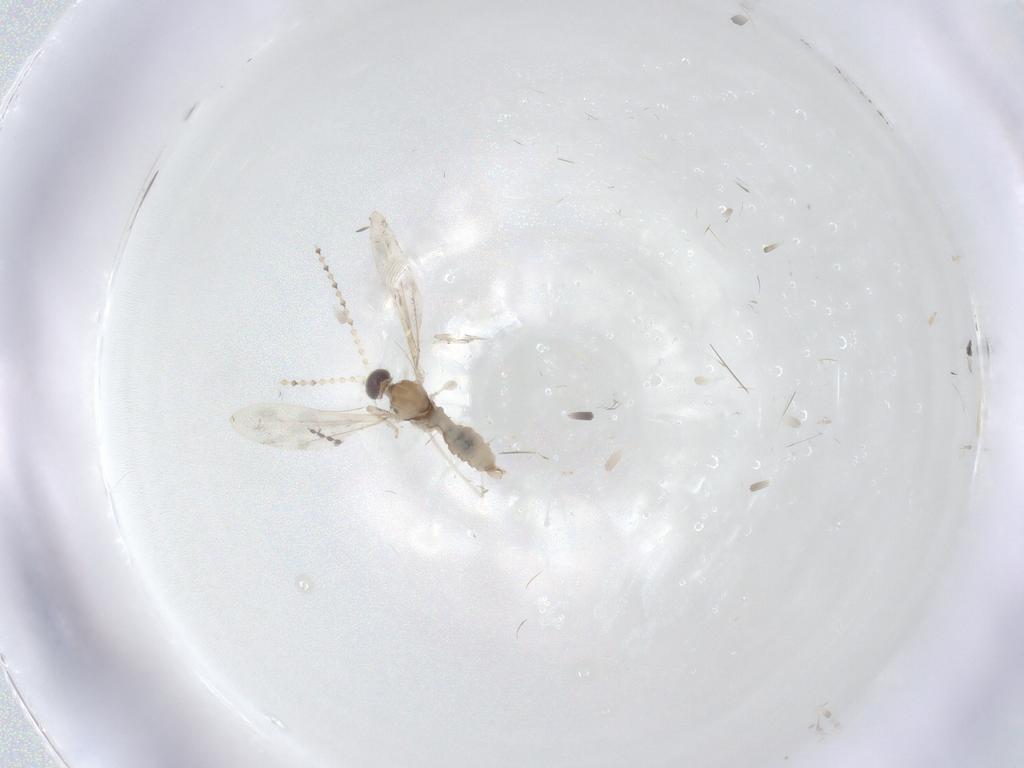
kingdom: Animalia
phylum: Arthropoda
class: Insecta
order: Diptera
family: Cecidomyiidae
